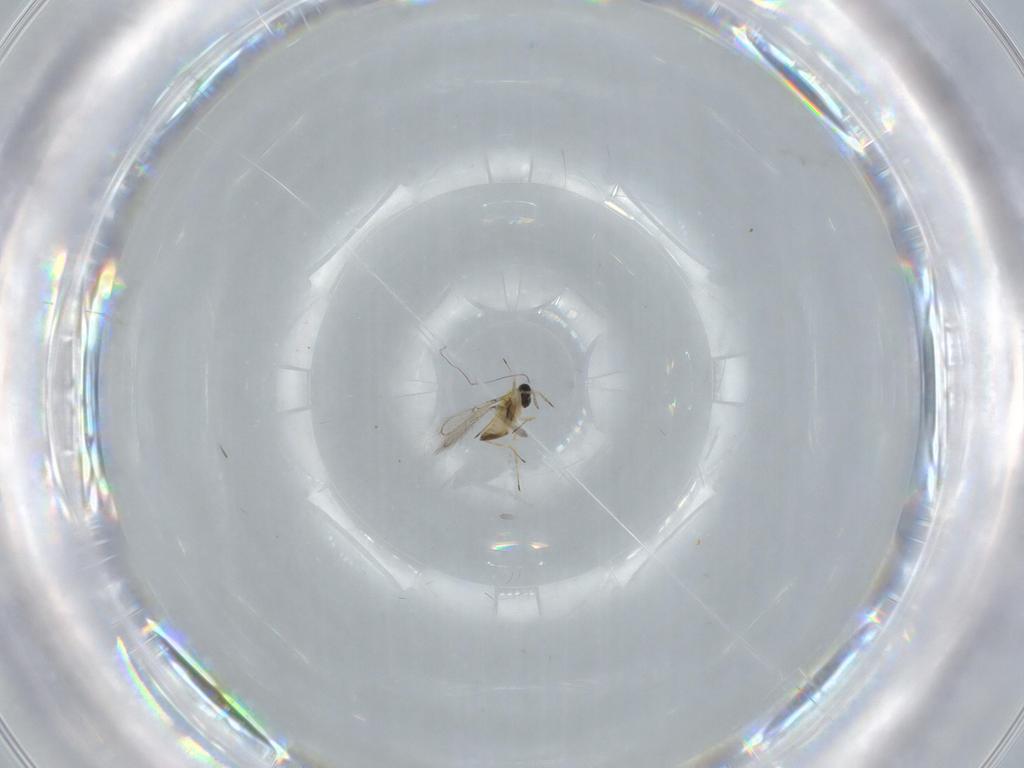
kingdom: Animalia
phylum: Arthropoda
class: Insecta
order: Hymenoptera
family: Trichogrammatidae
